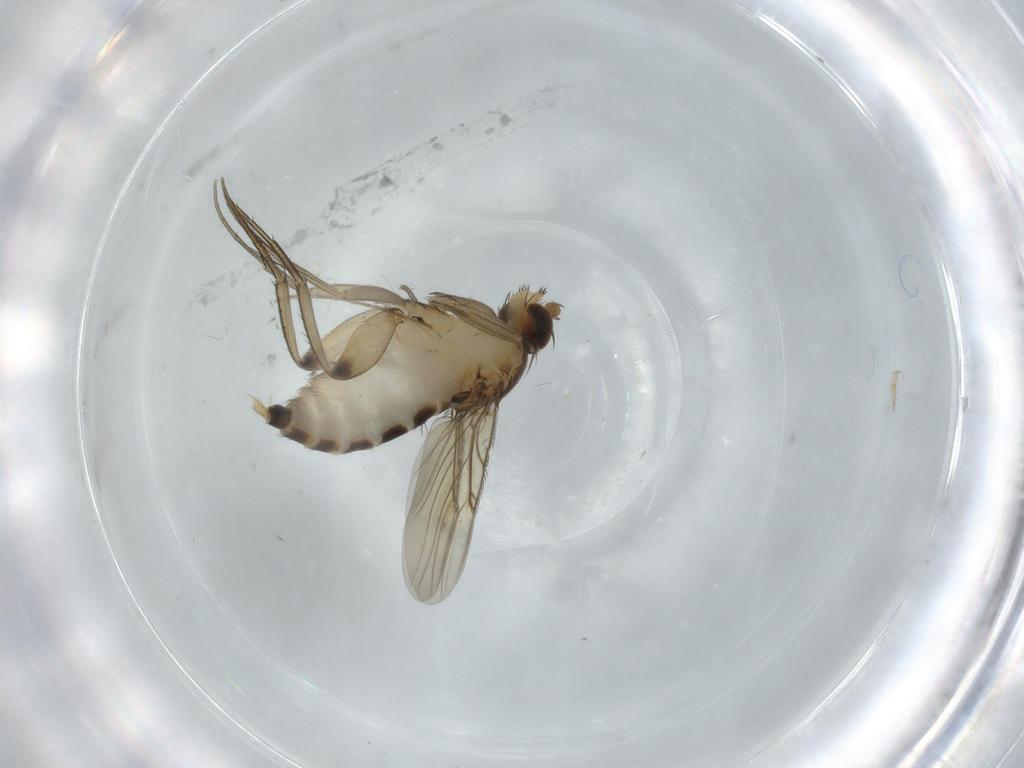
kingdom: Animalia
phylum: Arthropoda
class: Insecta
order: Diptera
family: Chironomidae
